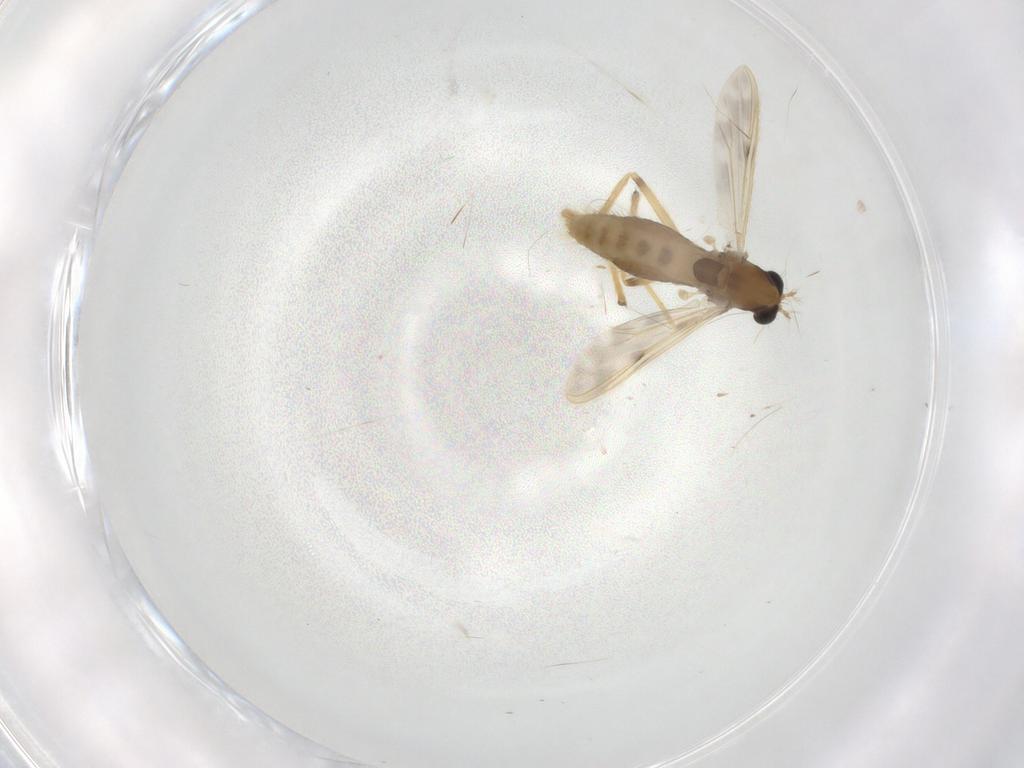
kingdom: Animalia
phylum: Arthropoda
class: Insecta
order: Diptera
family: Chironomidae
